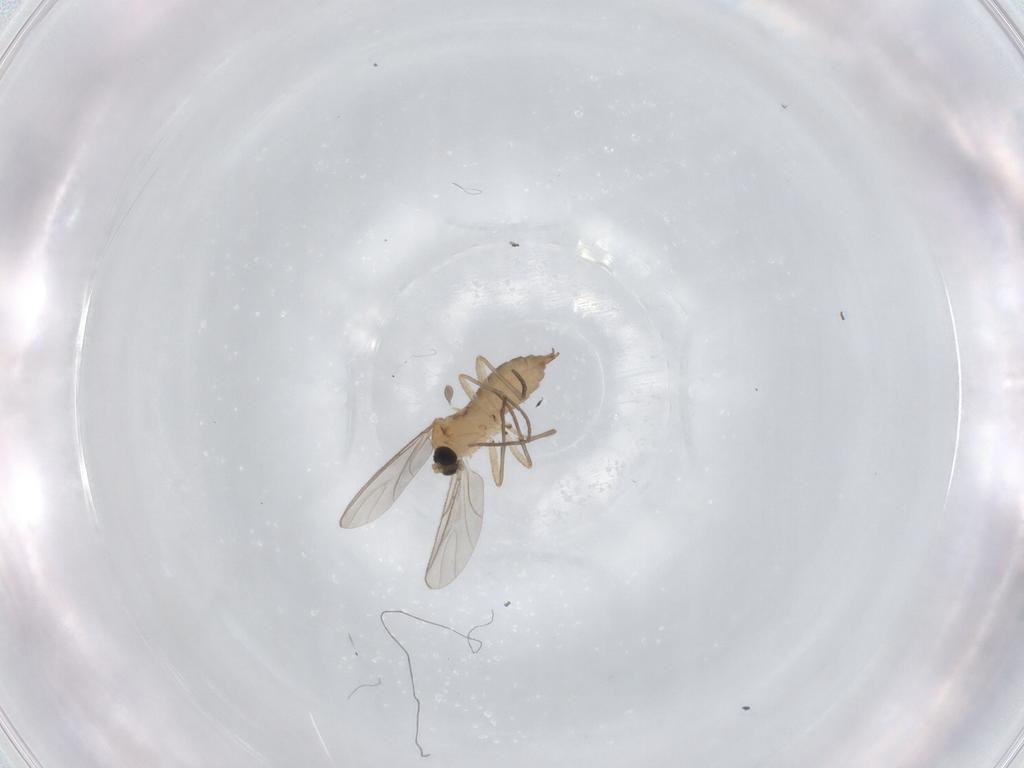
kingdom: Animalia
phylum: Arthropoda
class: Insecta
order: Diptera
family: Sciaridae
